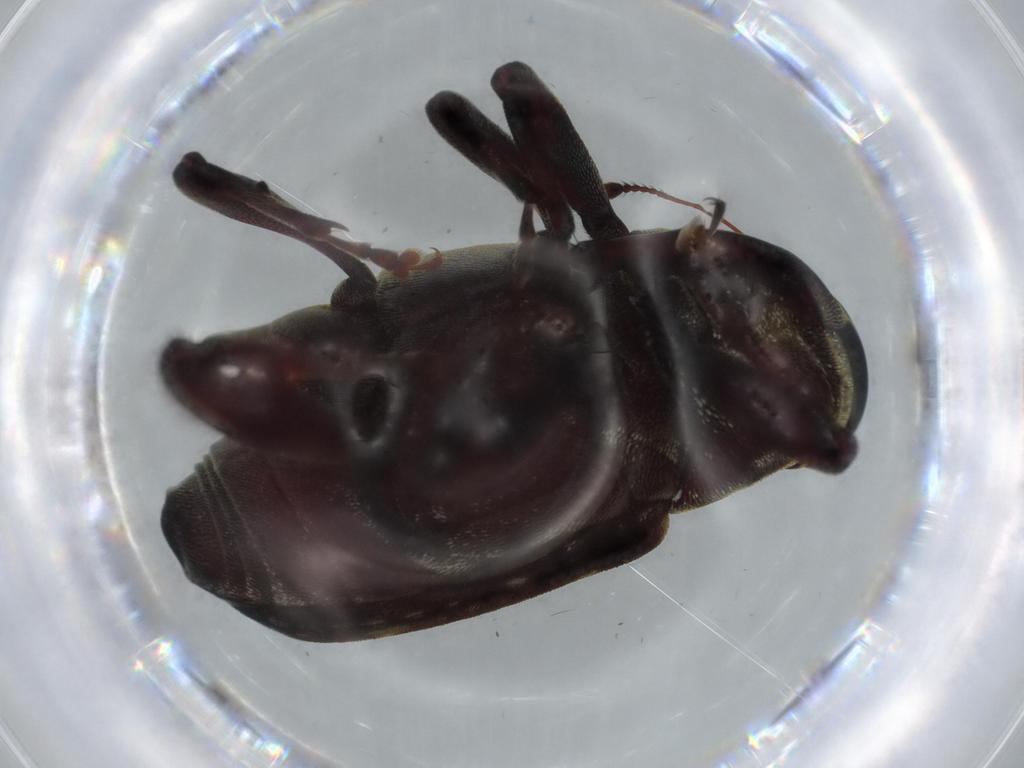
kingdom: Animalia
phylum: Arthropoda
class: Insecta
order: Coleoptera
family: Curculionidae
